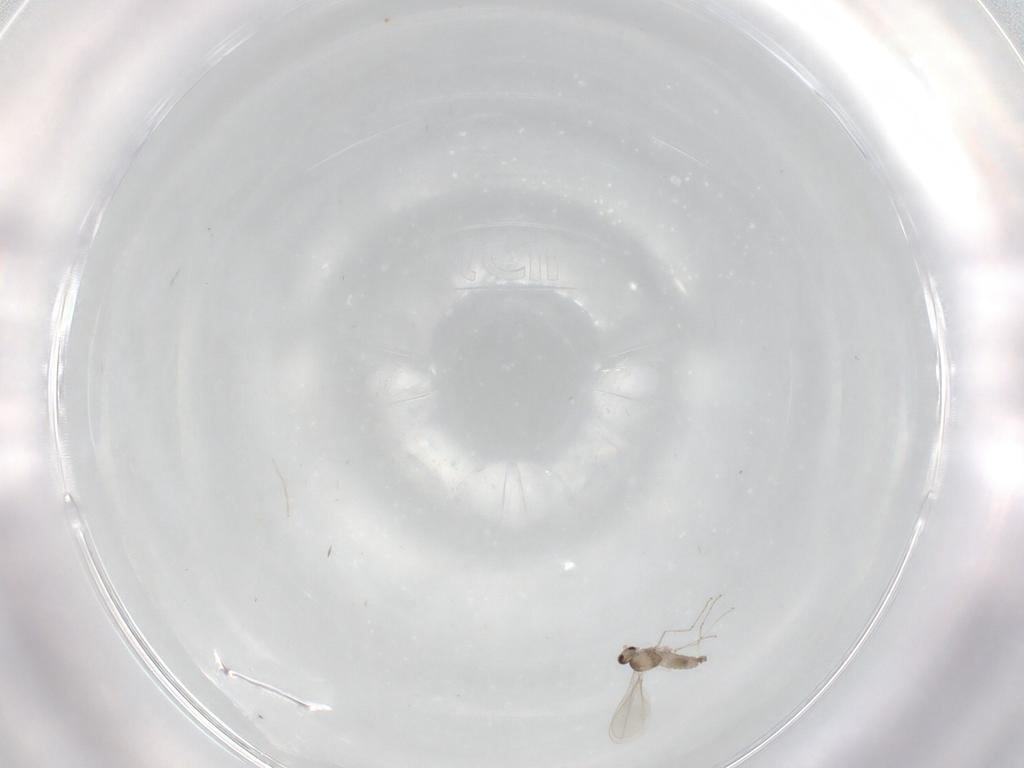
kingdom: Animalia
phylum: Arthropoda
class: Insecta
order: Diptera
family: Cecidomyiidae
